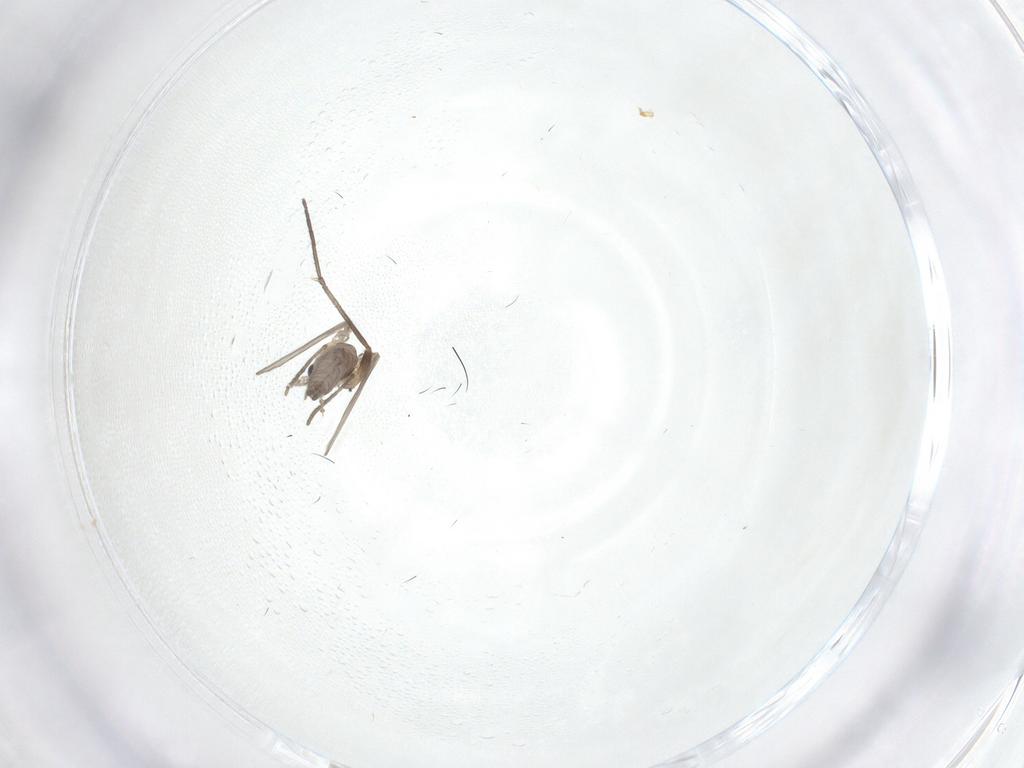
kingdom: Animalia
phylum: Arthropoda
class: Insecta
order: Diptera
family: Psychodidae
